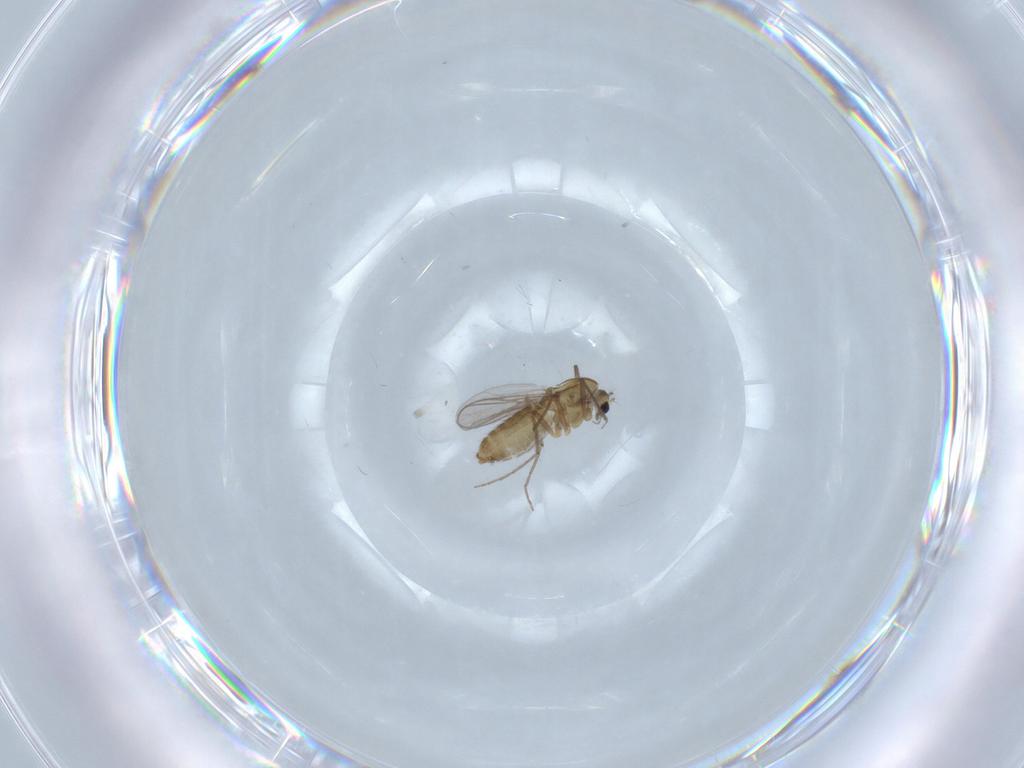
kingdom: Animalia
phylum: Arthropoda
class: Insecta
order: Diptera
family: Chironomidae
